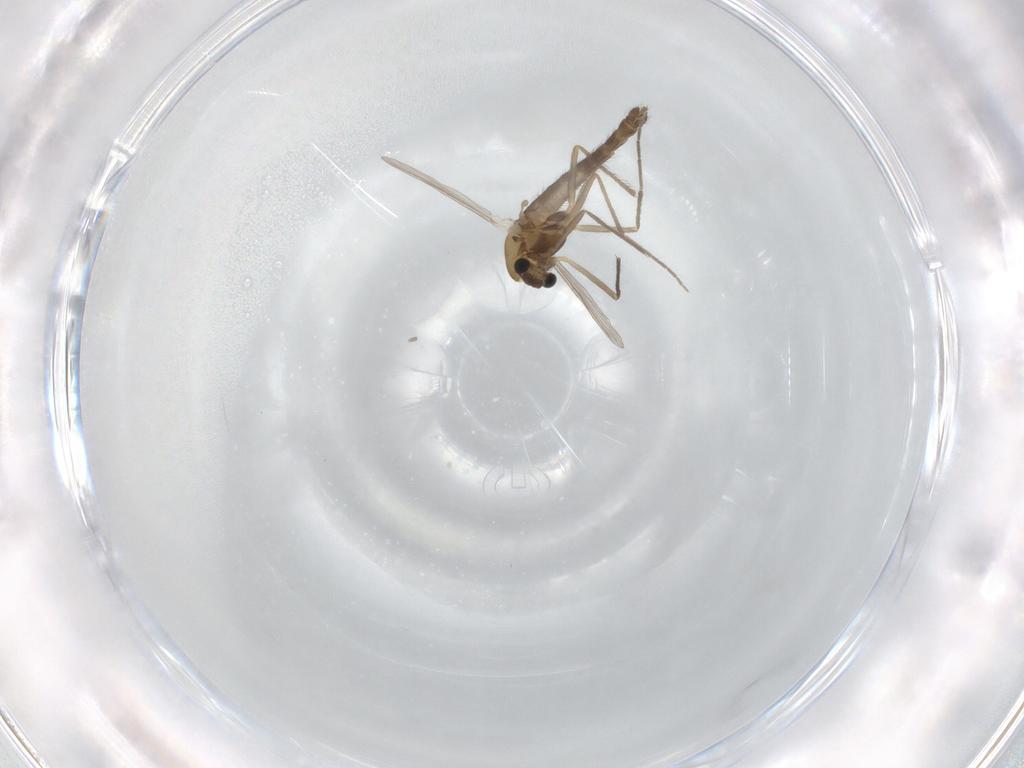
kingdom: Animalia
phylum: Arthropoda
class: Insecta
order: Diptera
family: Chironomidae
